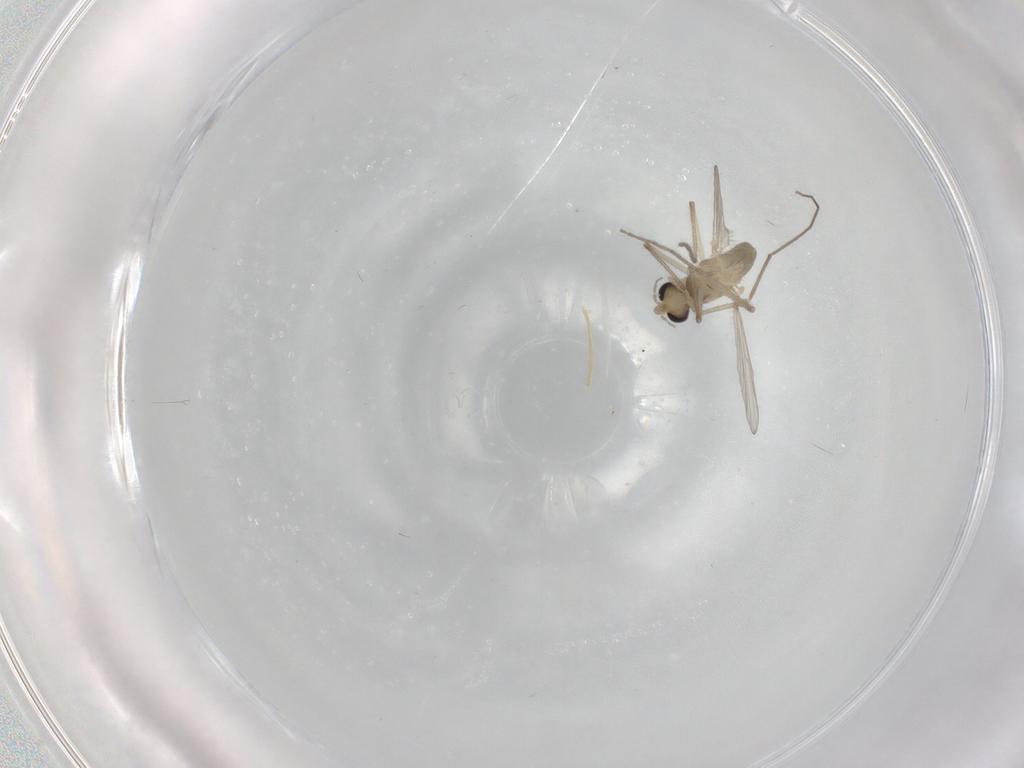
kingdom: Animalia
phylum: Arthropoda
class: Insecta
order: Diptera
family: Chironomidae
